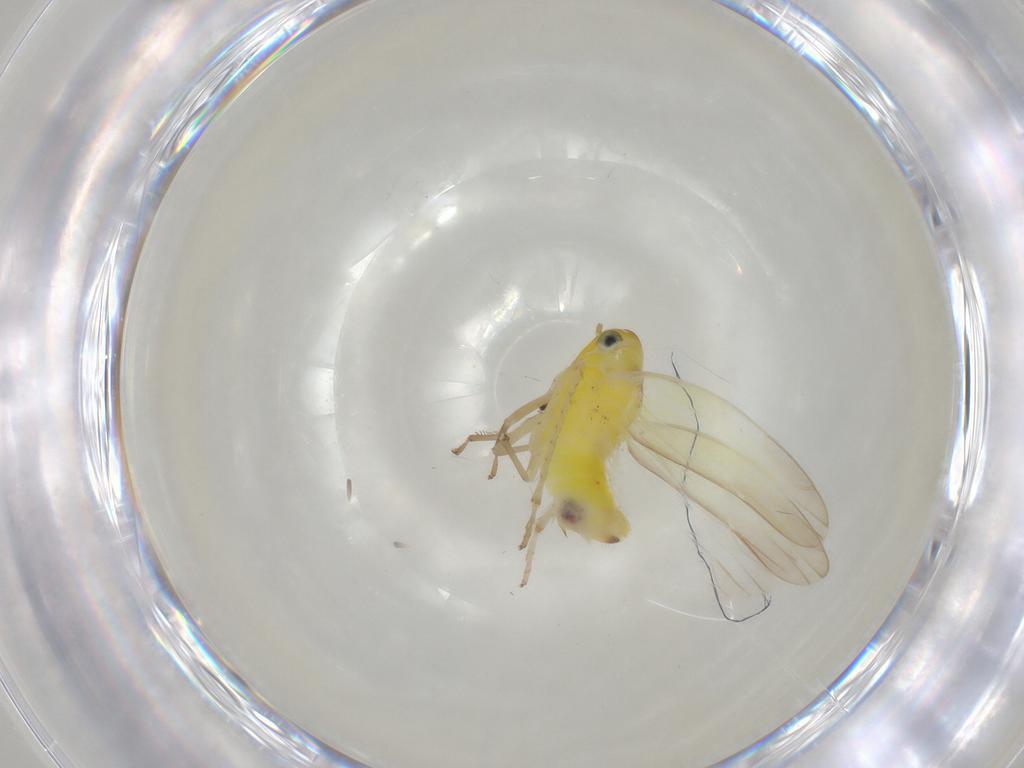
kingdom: Animalia
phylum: Arthropoda
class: Insecta
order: Hemiptera
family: Cicadellidae
